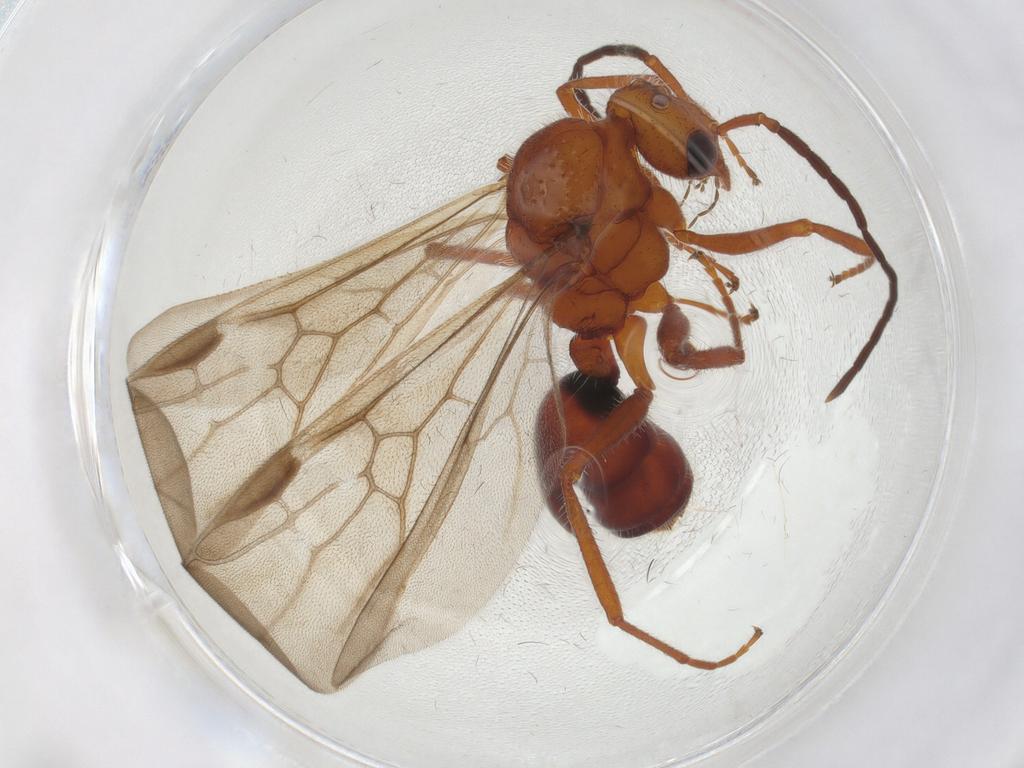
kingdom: Animalia
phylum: Arthropoda
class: Insecta
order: Hymenoptera
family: Formicidae
